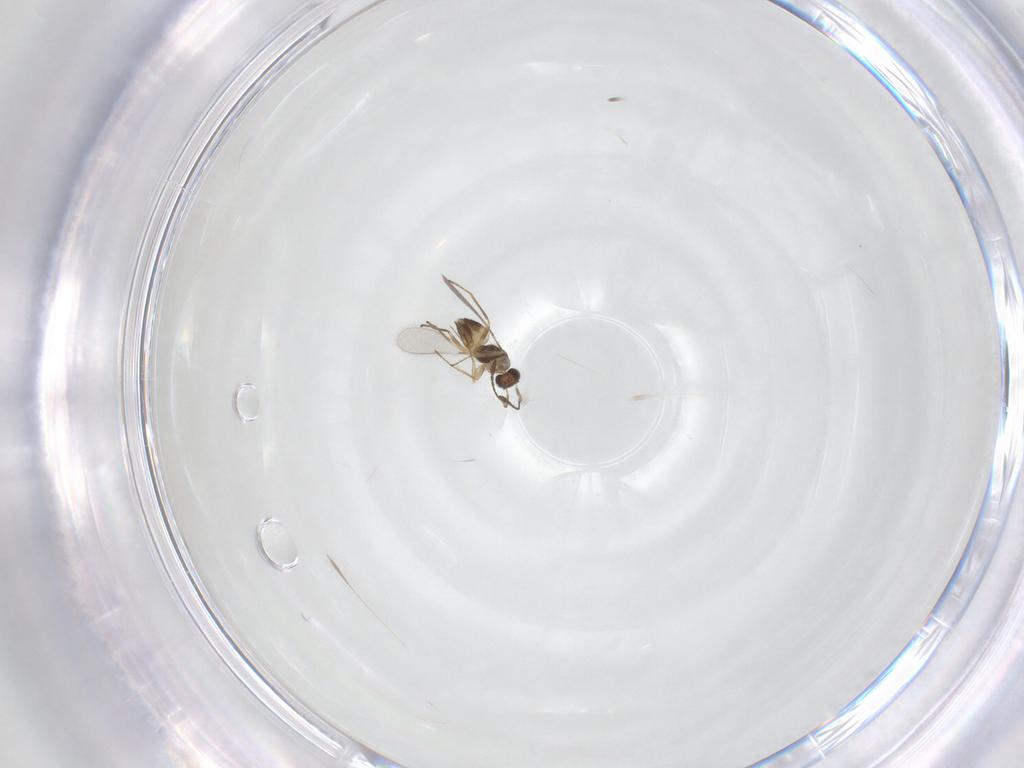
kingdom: Animalia
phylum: Arthropoda
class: Insecta
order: Hymenoptera
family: Mymaridae
